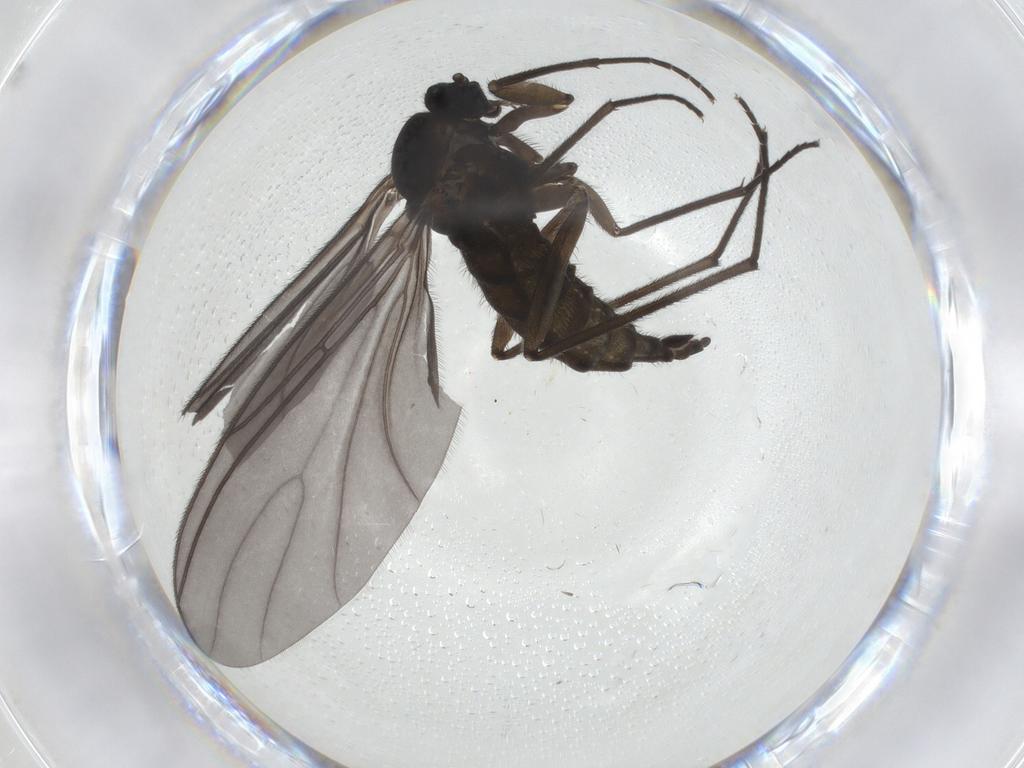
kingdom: Animalia
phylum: Arthropoda
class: Insecta
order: Diptera
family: Sciaridae
